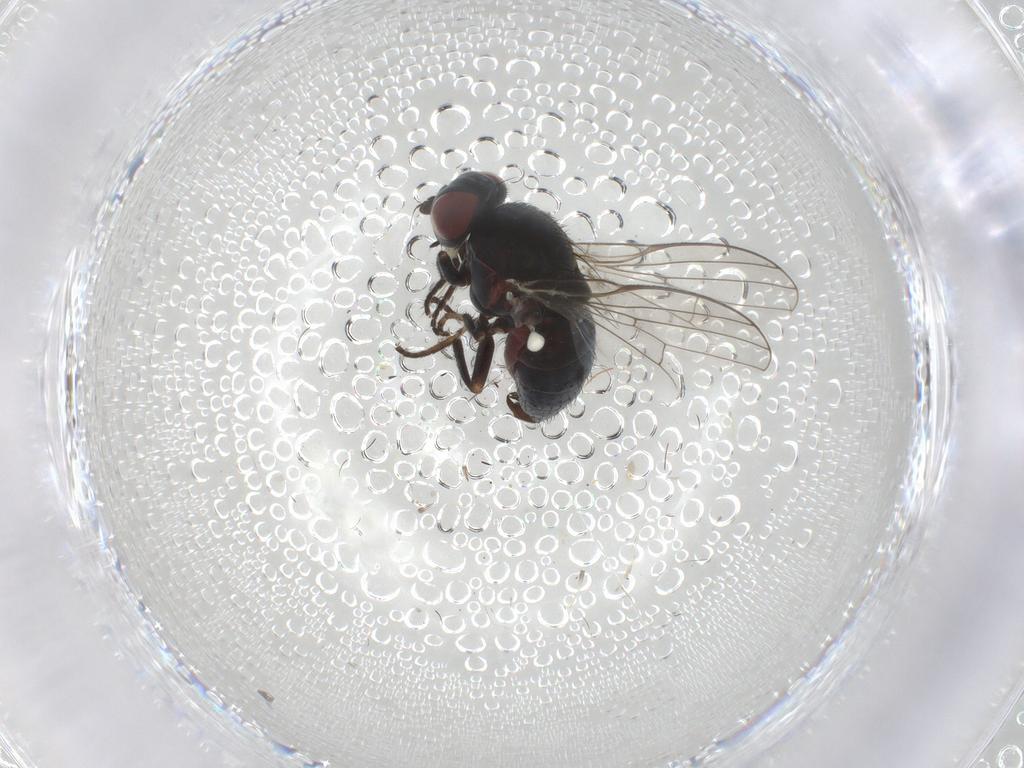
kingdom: Animalia
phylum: Arthropoda
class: Insecta
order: Diptera
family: Chamaemyiidae
